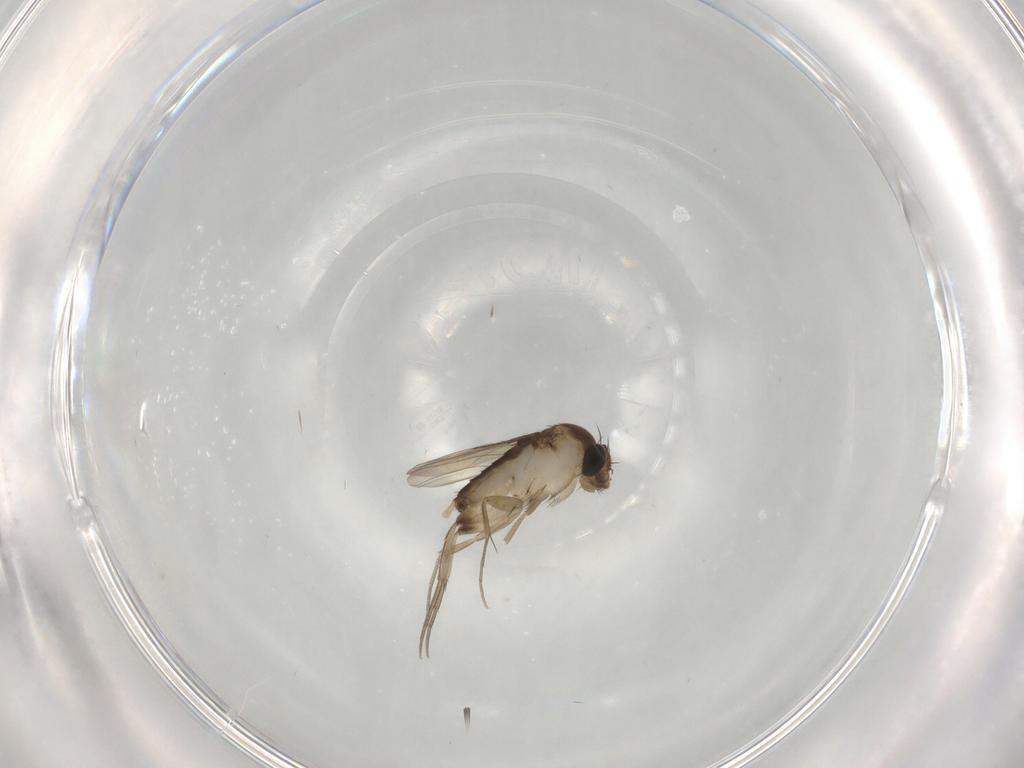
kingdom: Animalia
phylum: Arthropoda
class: Insecta
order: Diptera
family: Phoridae
